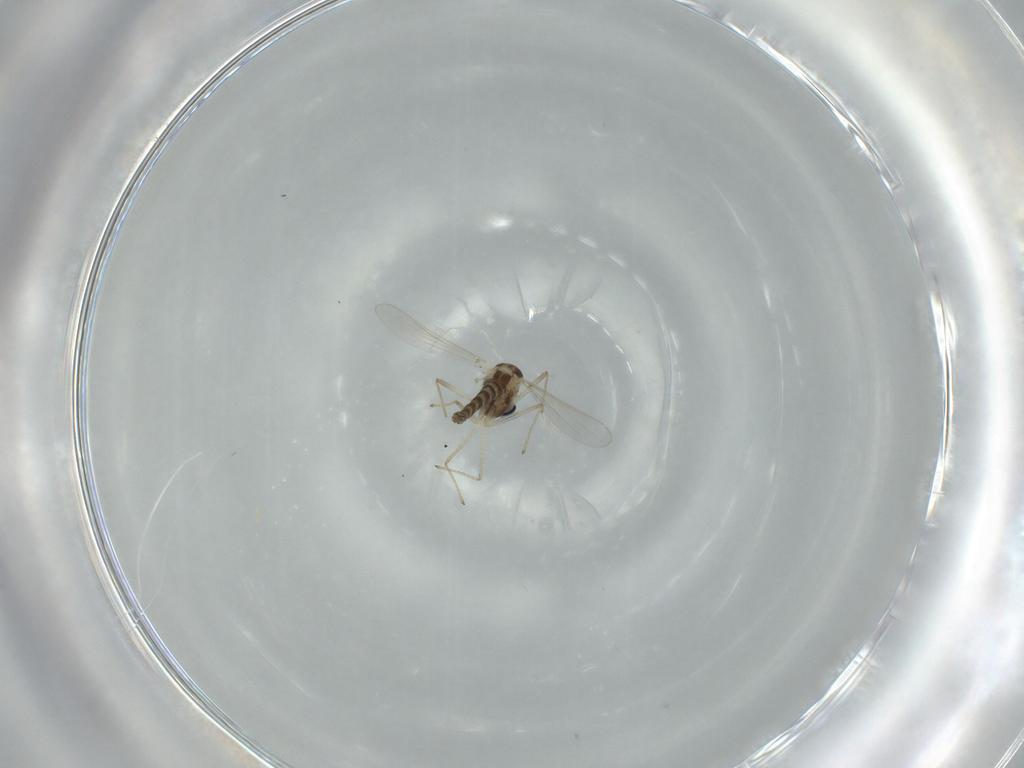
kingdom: Animalia
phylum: Arthropoda
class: Insecta
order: Diptera
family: Chironomidae
